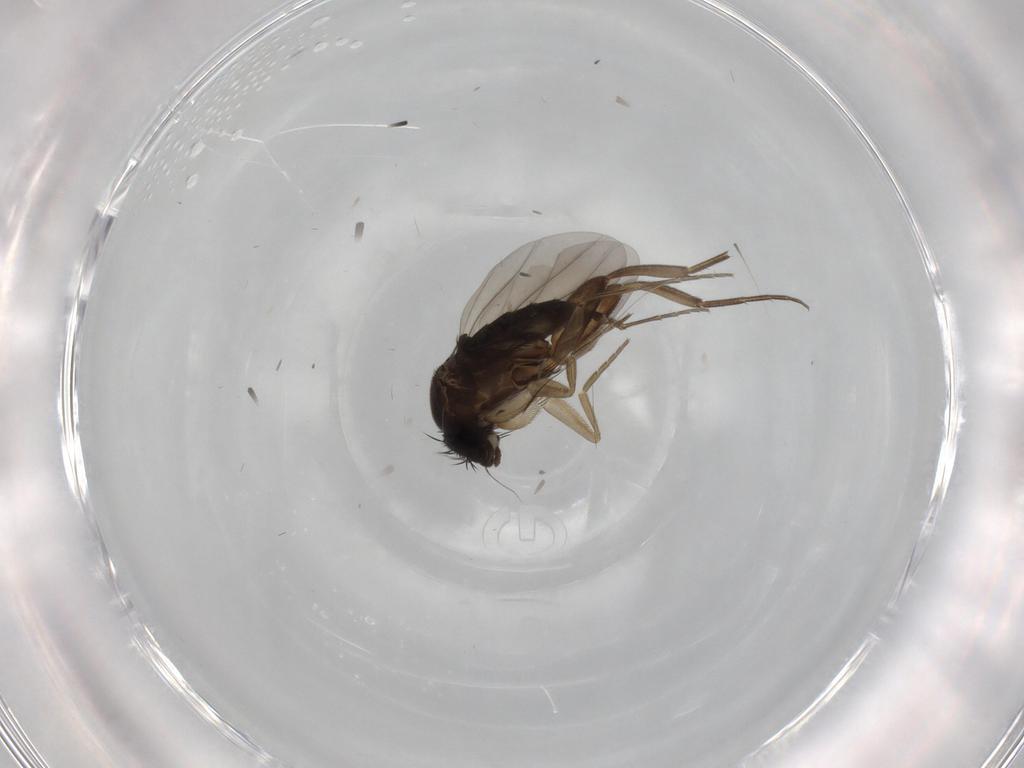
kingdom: Animalia
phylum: Arthropoda
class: Insecta
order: Diptera
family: Phoridae
